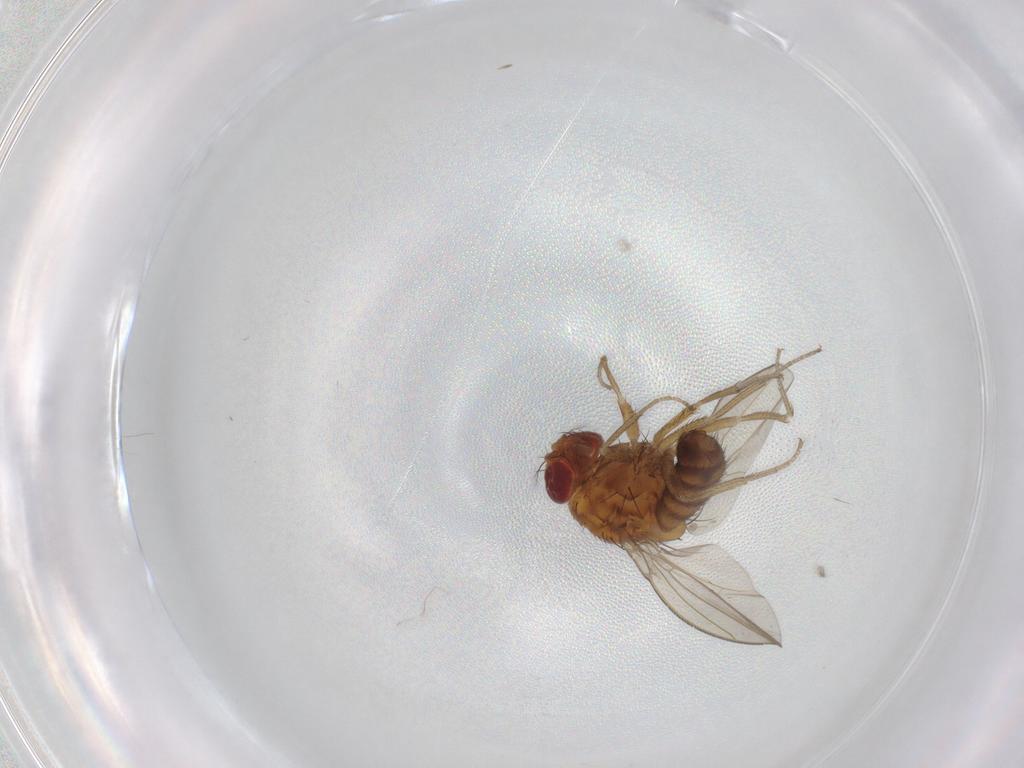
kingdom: Animalia
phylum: Arthropoda
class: Insecta
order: Diptera
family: Drosophilidae
